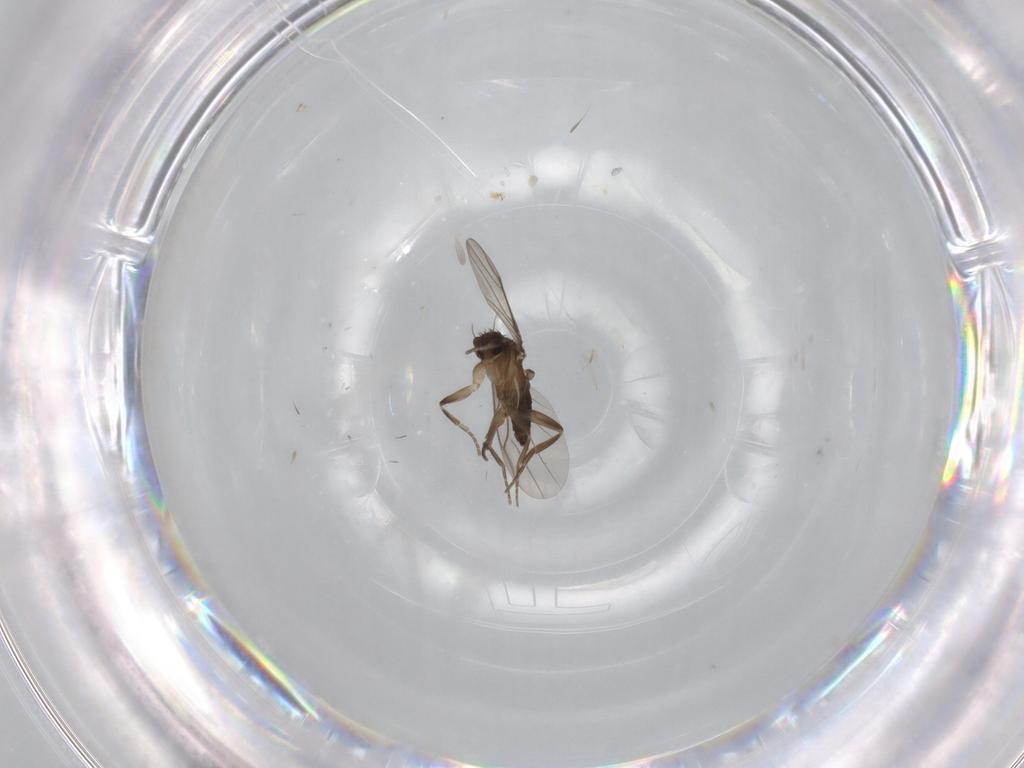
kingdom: Animalia
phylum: Arthropoda
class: Insecta
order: Diptera
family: Phoridae
